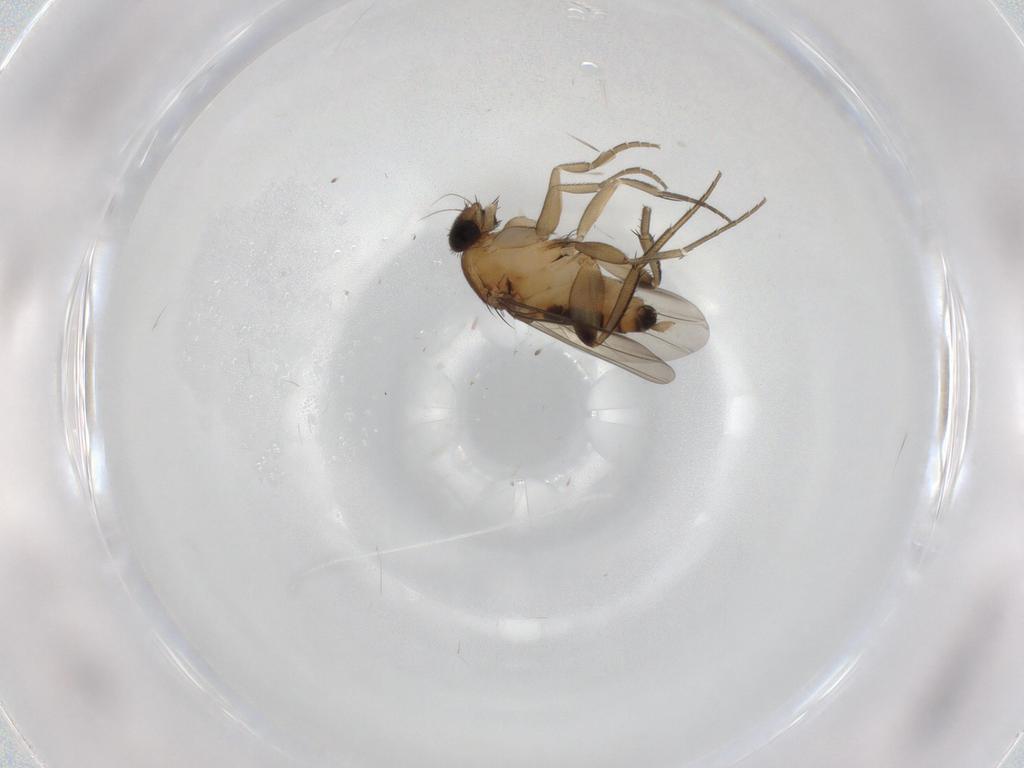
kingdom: Animalia
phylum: Arthropoda
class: Insecta
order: Diptera
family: Phoridae
